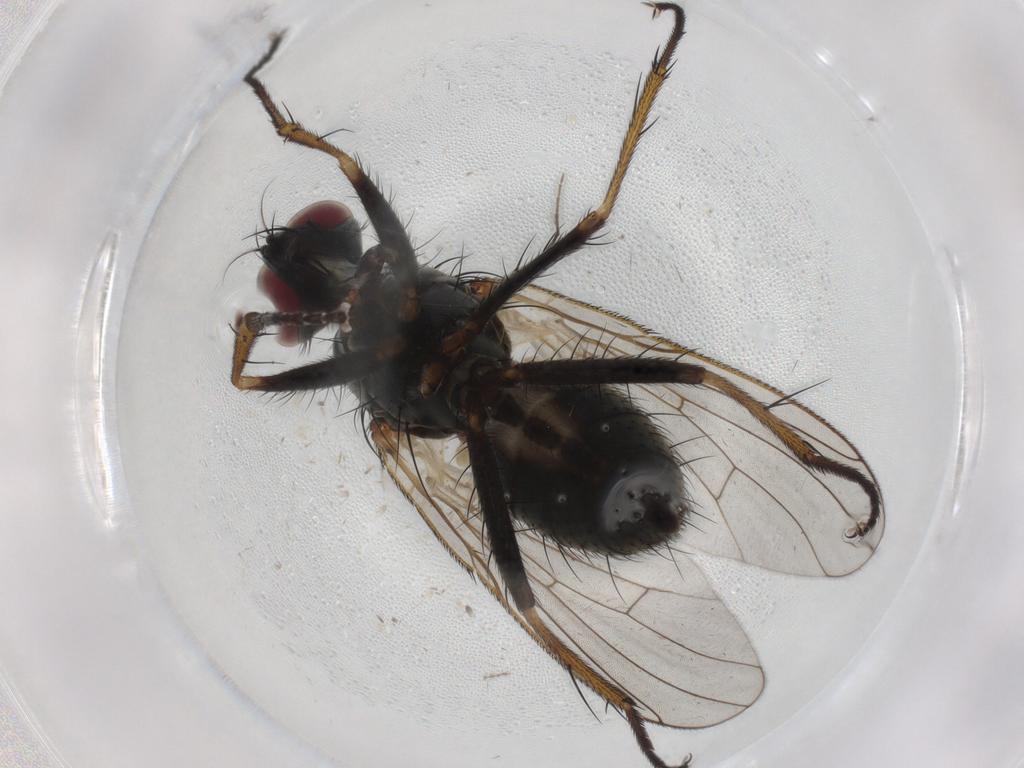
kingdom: Animalia
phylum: Arthropoda
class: Insecta
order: Diptera
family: Muscidae
